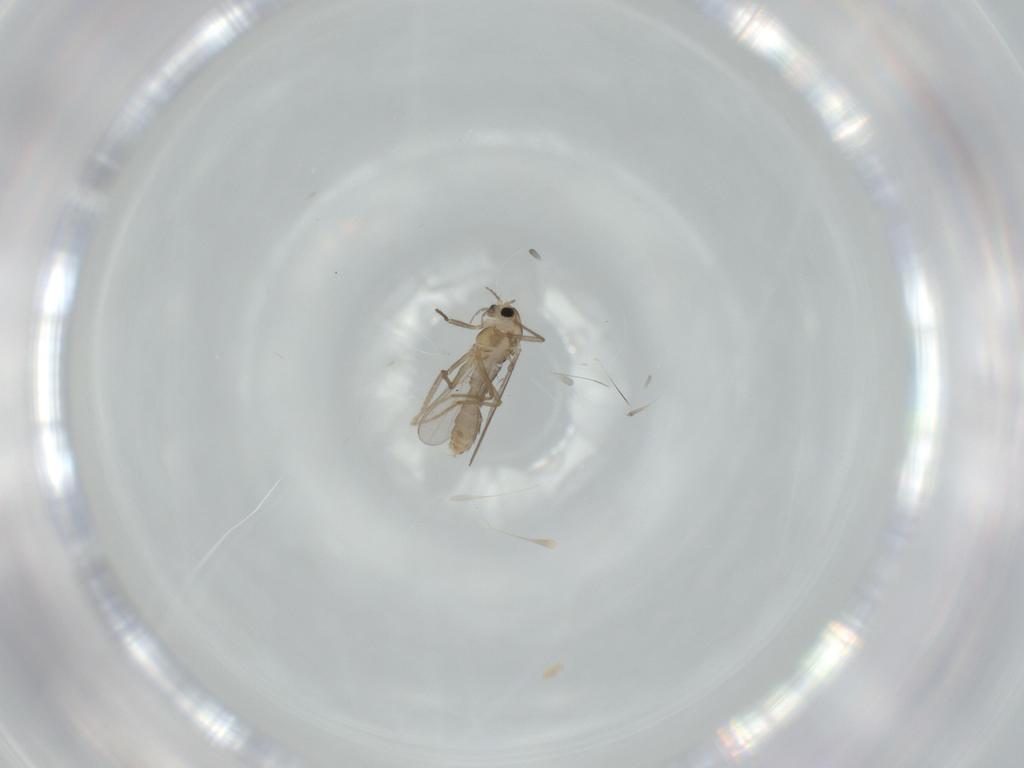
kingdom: Animalia
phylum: Arthropoda
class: Insecta
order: Diptera
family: Chironomidae
